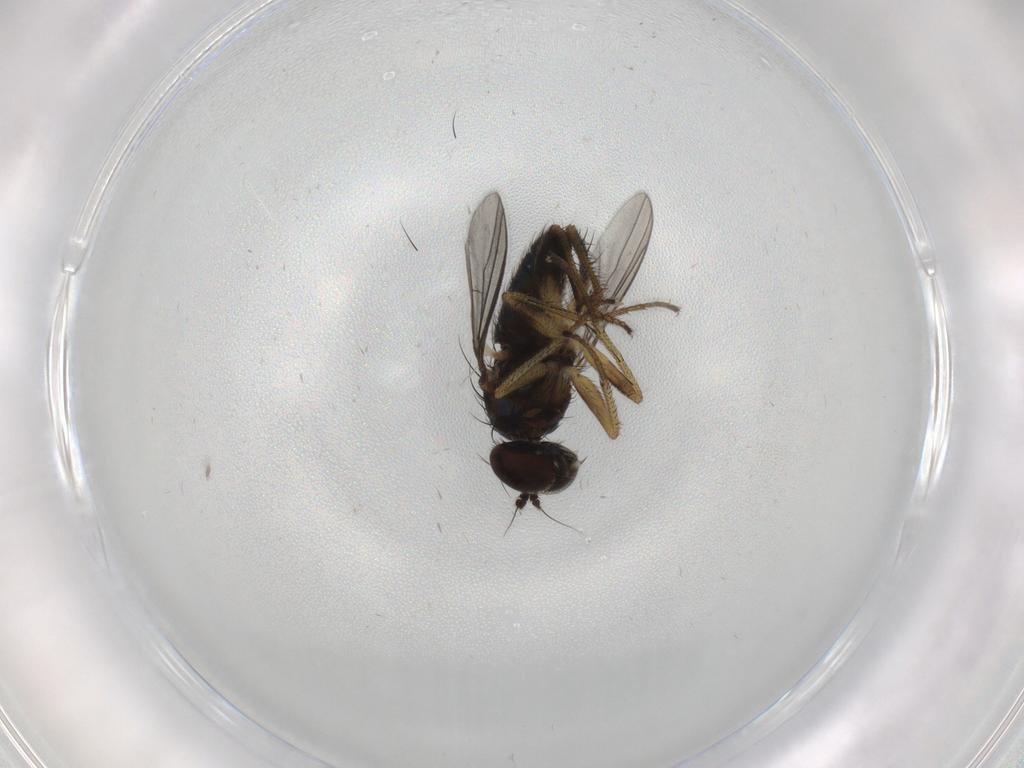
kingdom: Animalia
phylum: Arthropoda
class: Insecta
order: Diptera
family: Dolichopodidae
